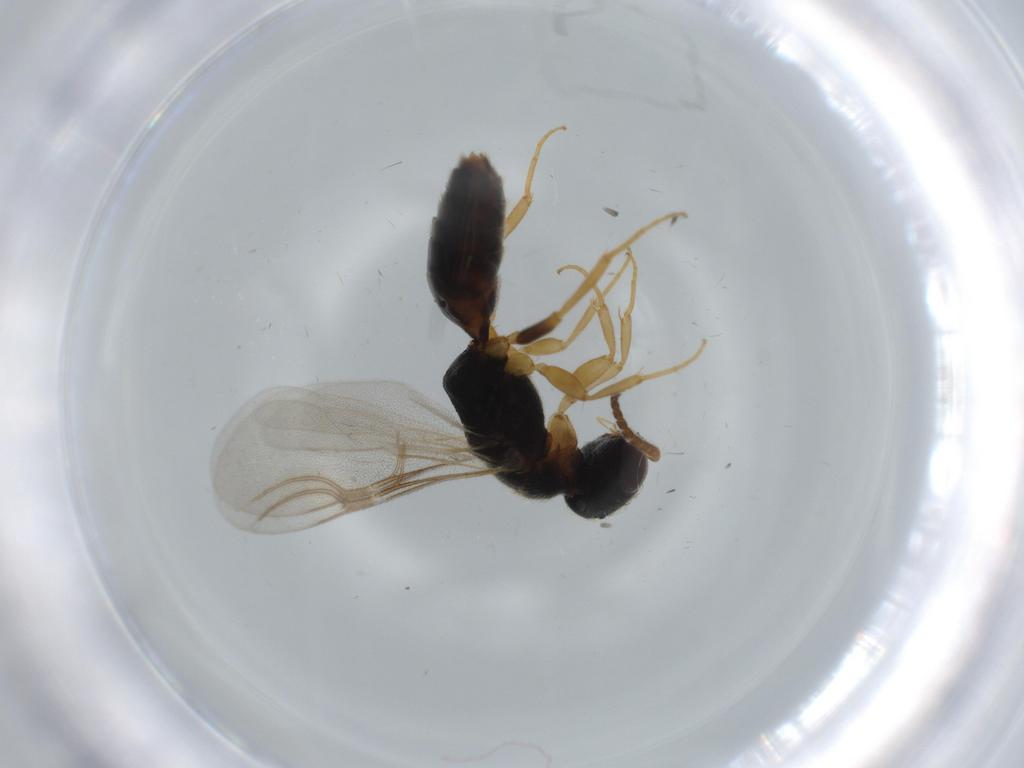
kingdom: Animalia
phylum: Arthropoda
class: Insecta
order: Hymenoptera
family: Bethylidae
